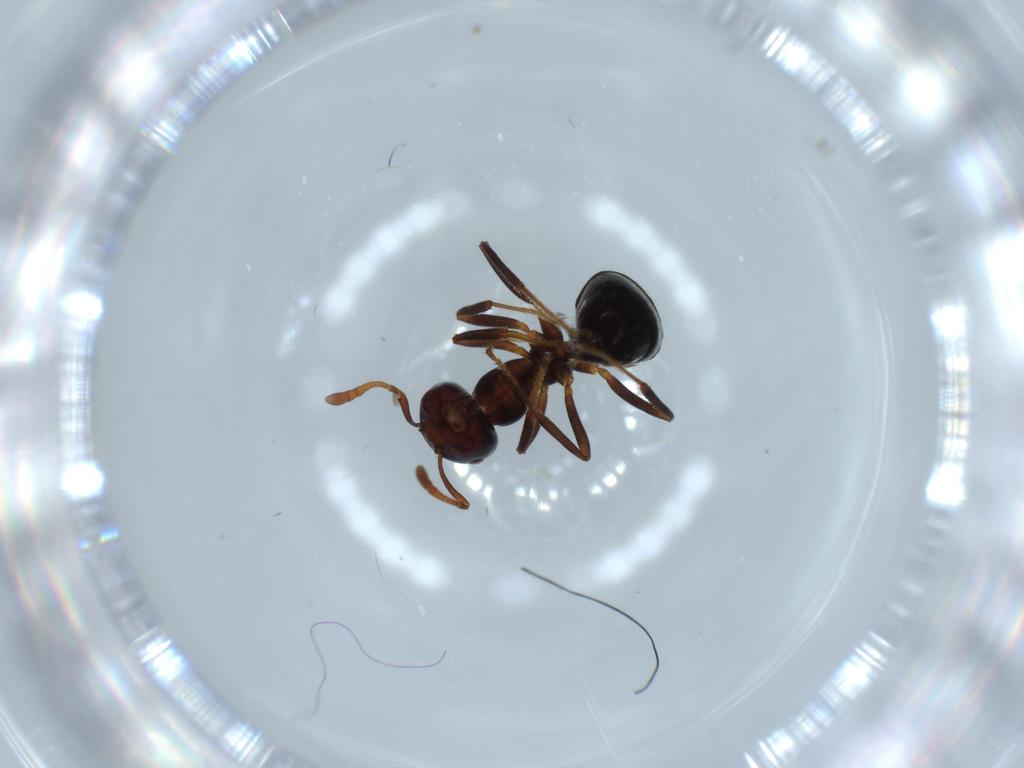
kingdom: Animalia
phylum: Arthropoda
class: Insecta
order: Hymenoptera
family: Formicidae
